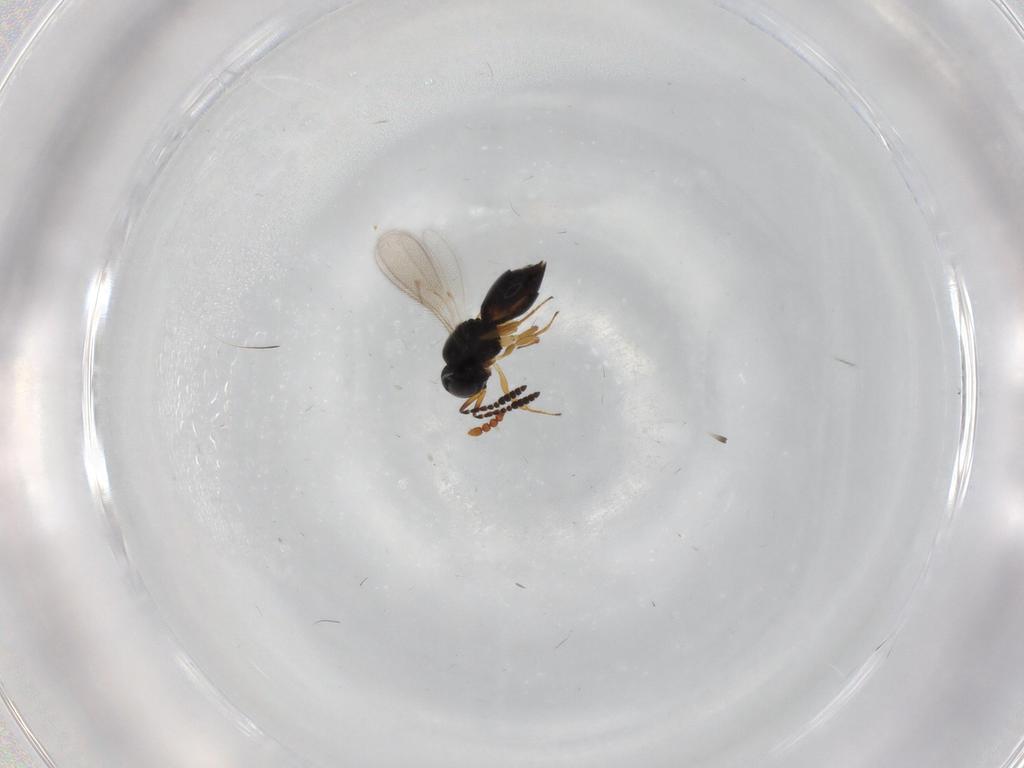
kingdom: Animalia
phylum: Arthropoda
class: Insecta
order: Hymenoptera
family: Scelionidae
